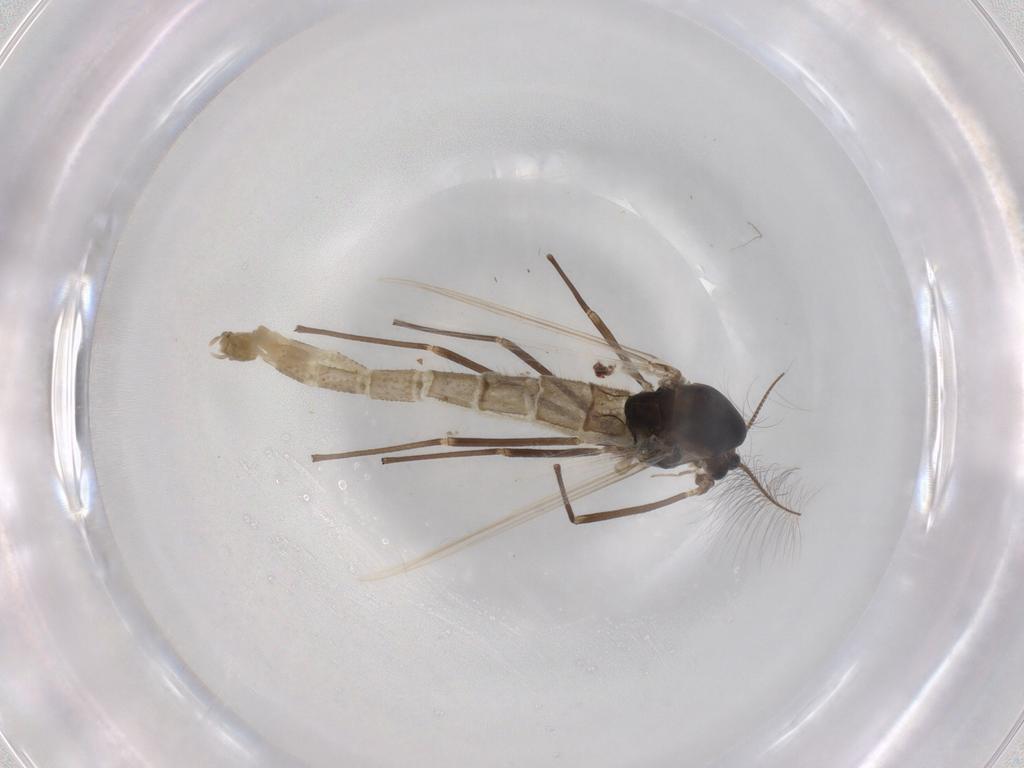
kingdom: Animalia
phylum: Arthropoda
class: Insecta
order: Diptera
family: Chironomidae
